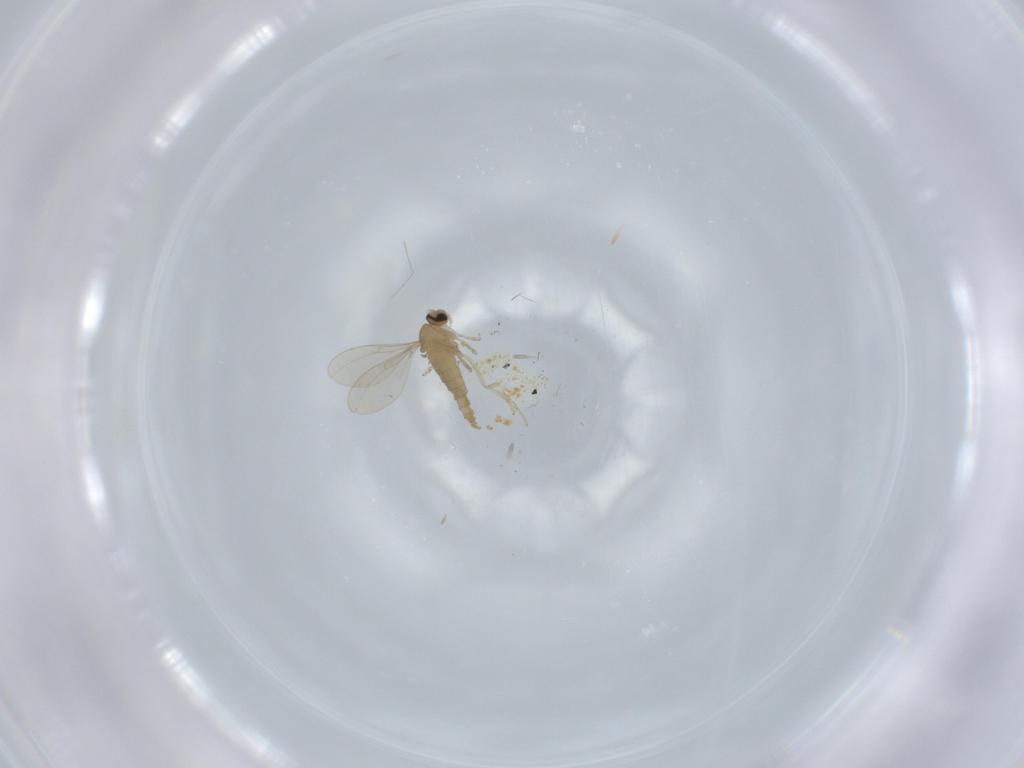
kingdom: Animalia
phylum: Arthropoda
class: Insecta
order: Diptera
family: Cecidomyiidae
